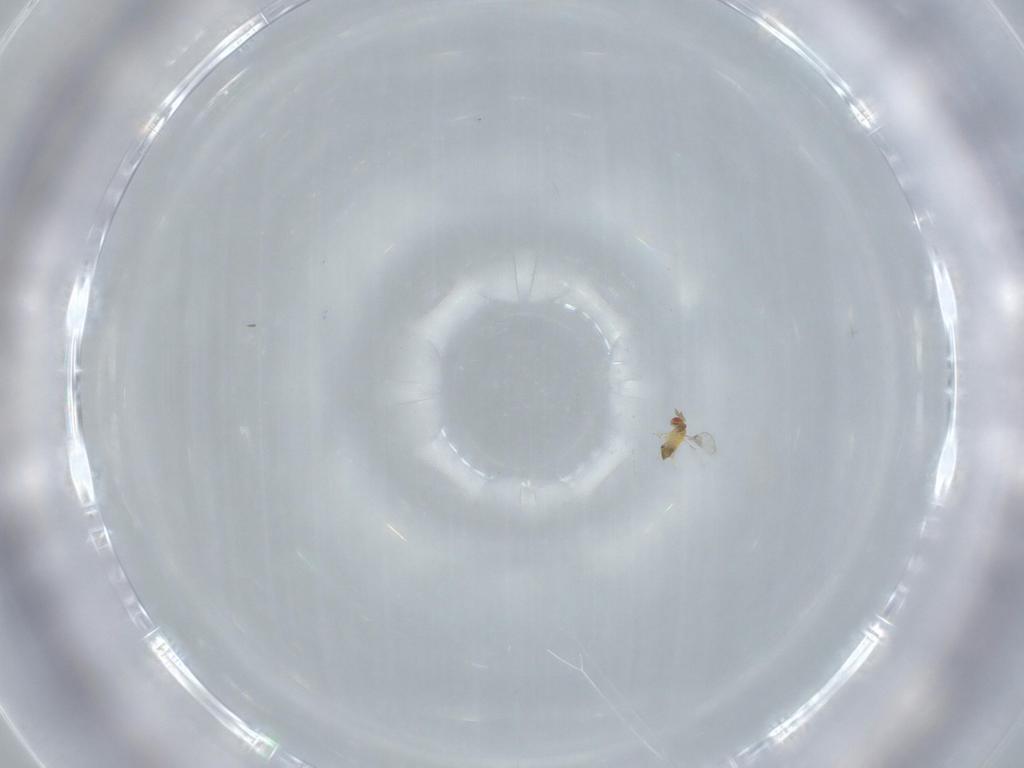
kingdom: Animalia
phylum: Arthropoda
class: Insecta
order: Hymenoptera
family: Trichogrammatidae
